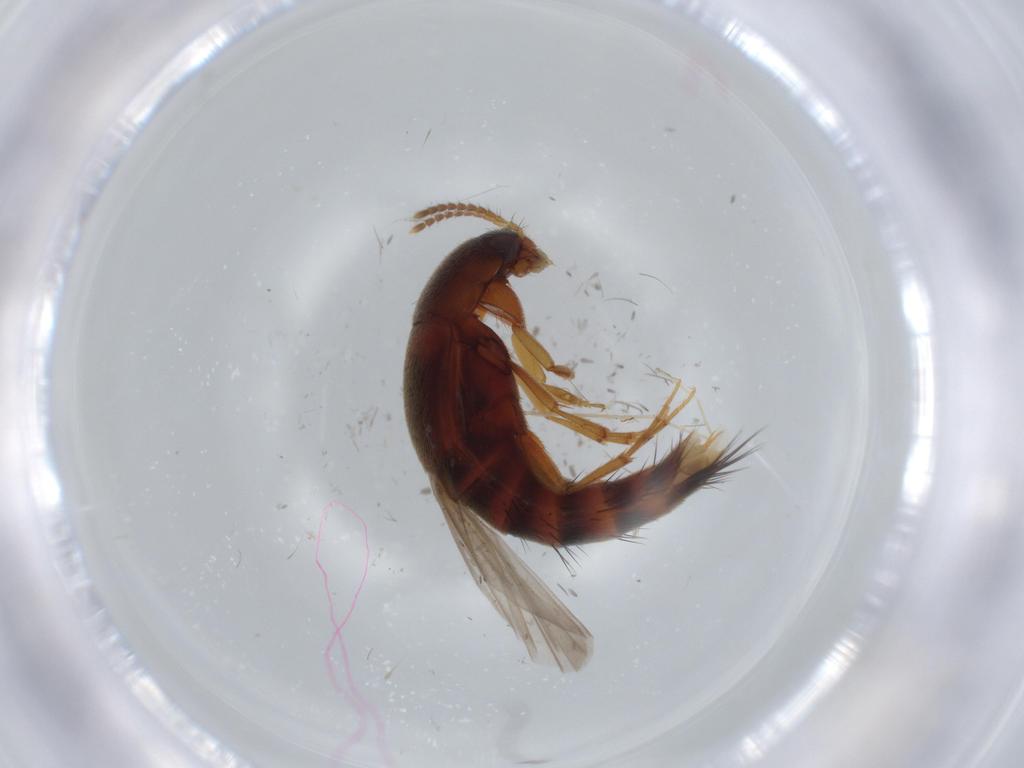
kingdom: Animalia
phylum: Arthropoda
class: Insecta
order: Coleoptera
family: Staphylinidae
